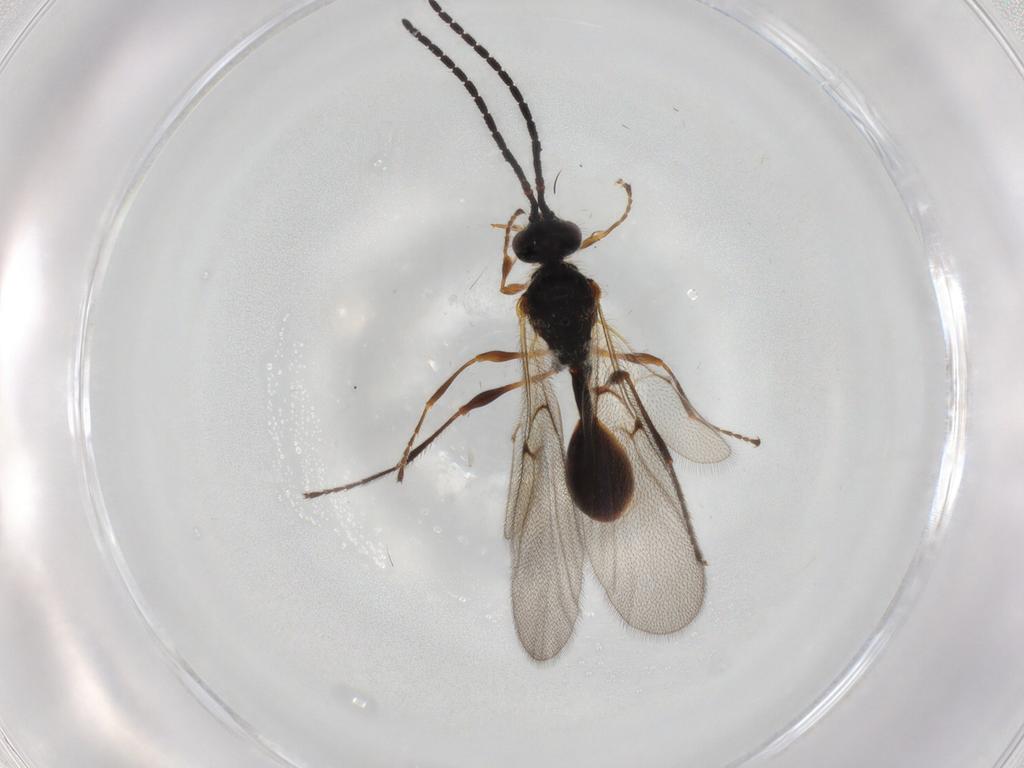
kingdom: Animalia
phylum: Arthropoda
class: Insecta
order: Hymenoptera
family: Diapriidae
